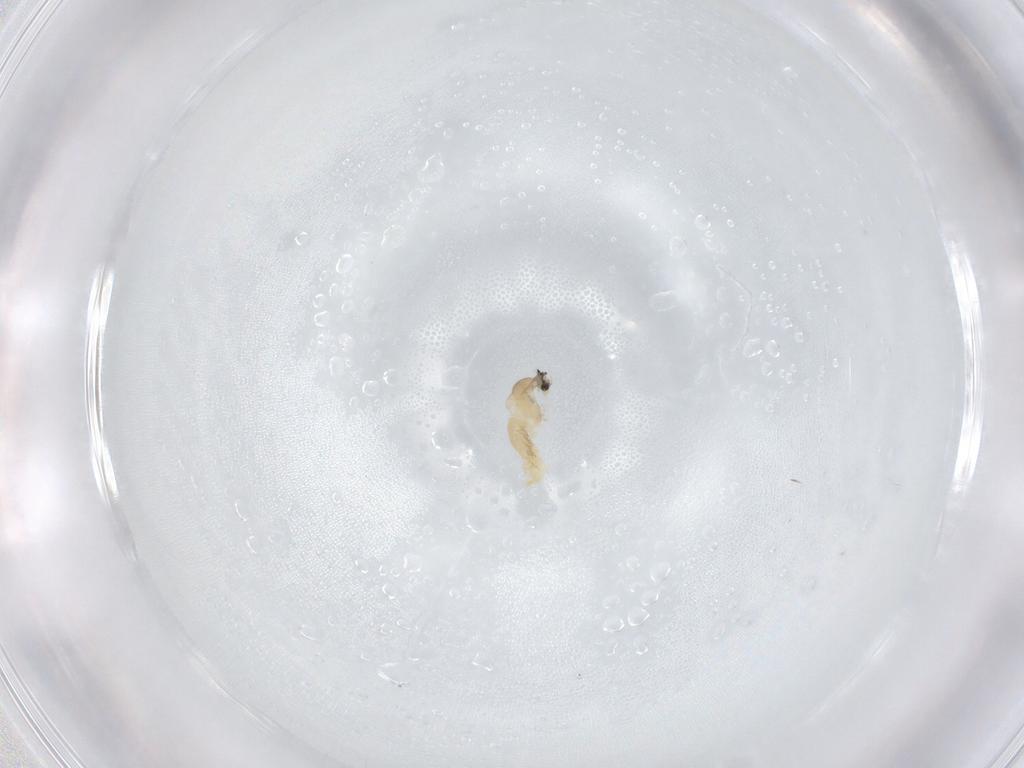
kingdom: Animalia
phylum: Arthropoda
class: Insecta
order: Diptera
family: Cecidomyiidae
